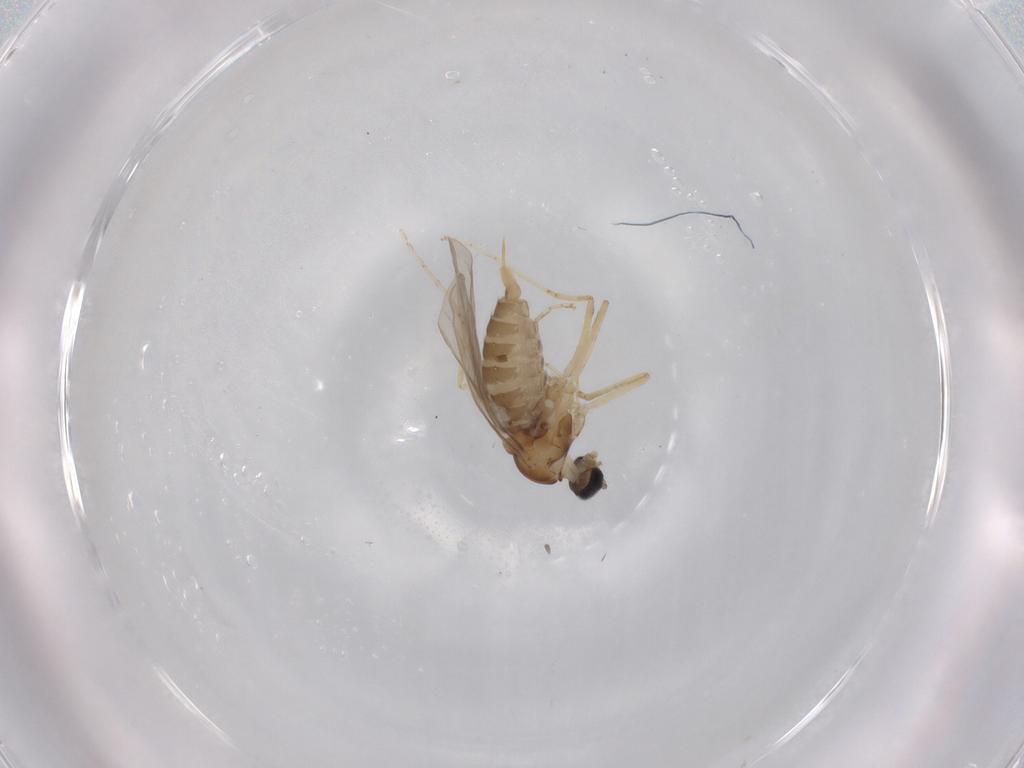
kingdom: Animalia
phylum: Arthropoda
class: Insecta
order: Diptera
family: Cecidomyiidae
